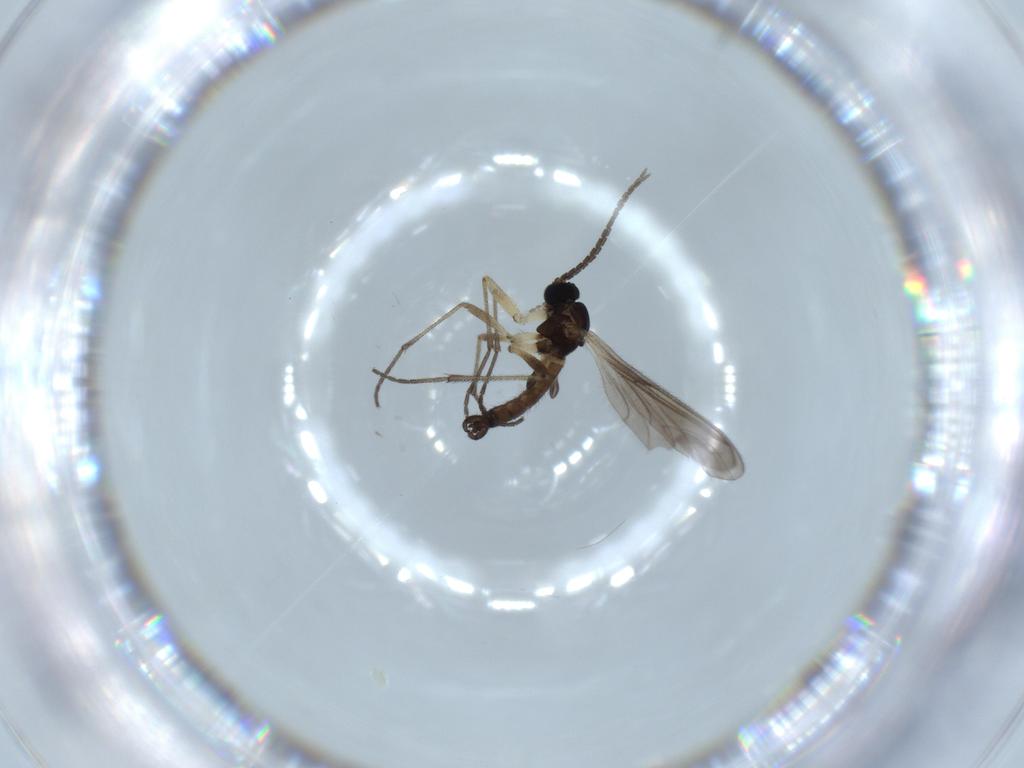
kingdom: Animalia
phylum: Arthropoda
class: Insecta
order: Diptera
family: Sciaridae
